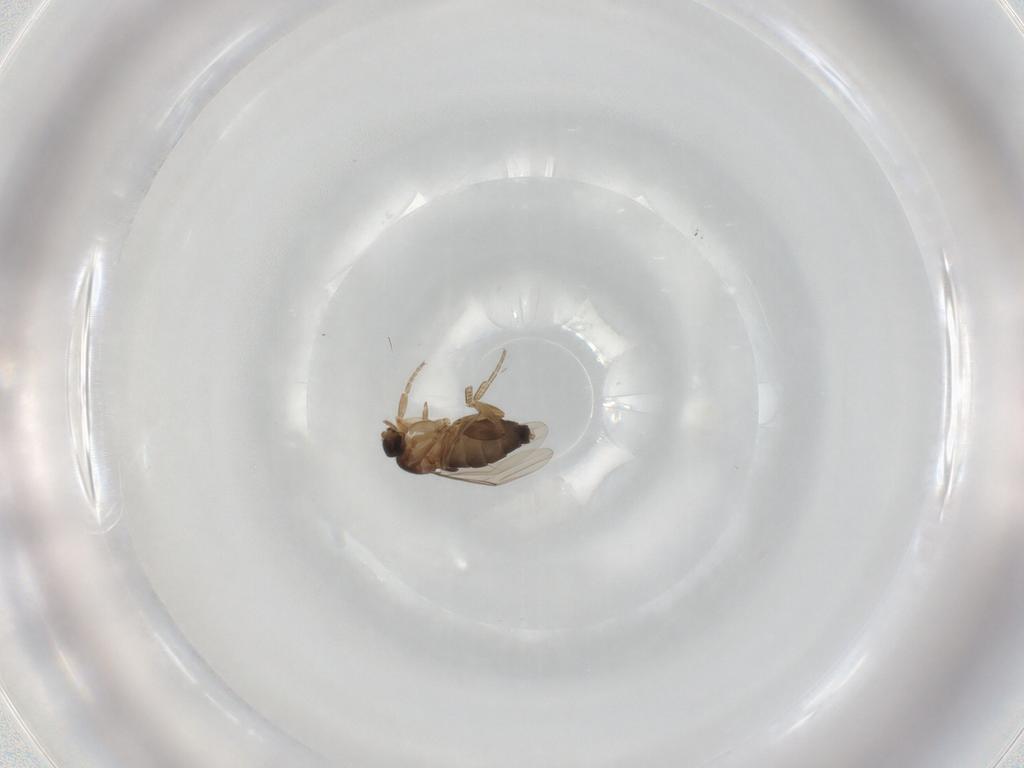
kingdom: Animalia
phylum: Arthropoda
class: Insecta
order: Diptera
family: Phoridae
